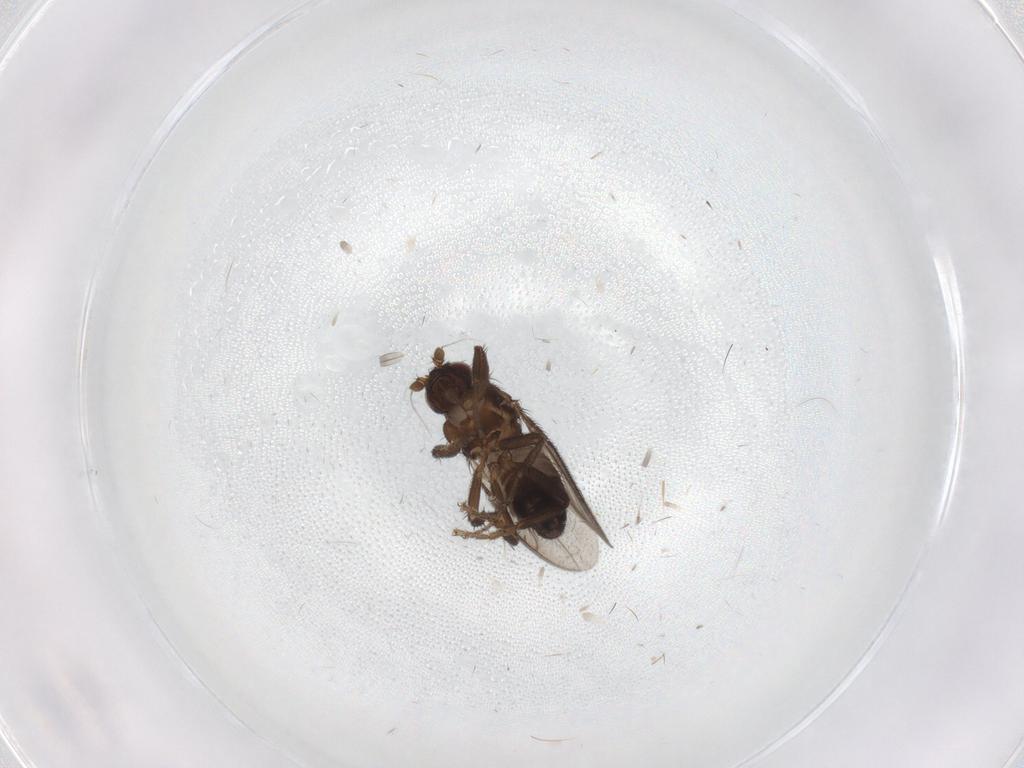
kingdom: Animalia
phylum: Arthropoda
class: Insecta
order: Diptera
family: Sphaeroceridae
